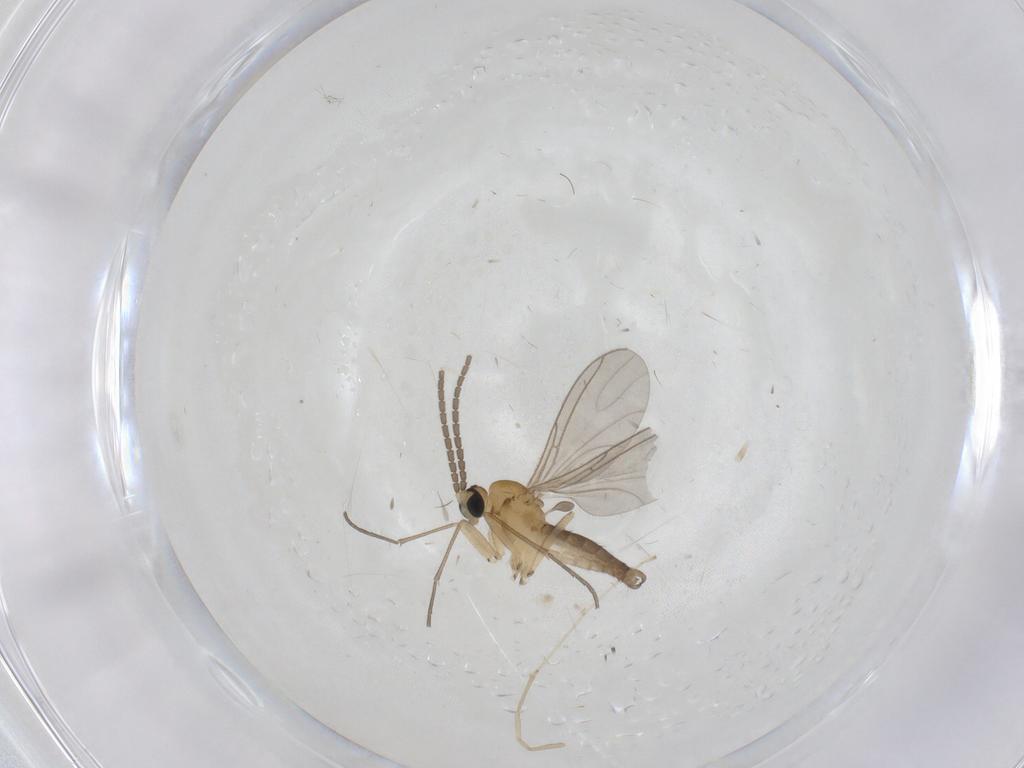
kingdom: Animalia
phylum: Arthropoda
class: Insecta
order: Diptera
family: Sciaridae
